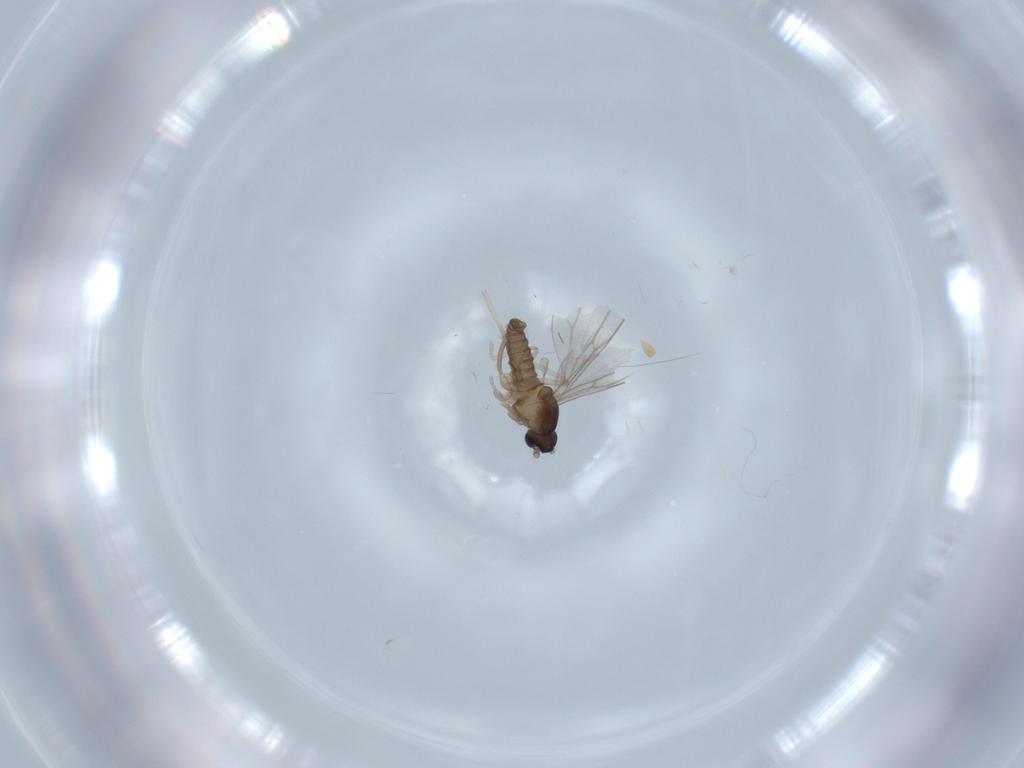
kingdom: Animalia
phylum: Arthropoda
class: Insecta
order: Diptera
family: Cecidomyiidae
